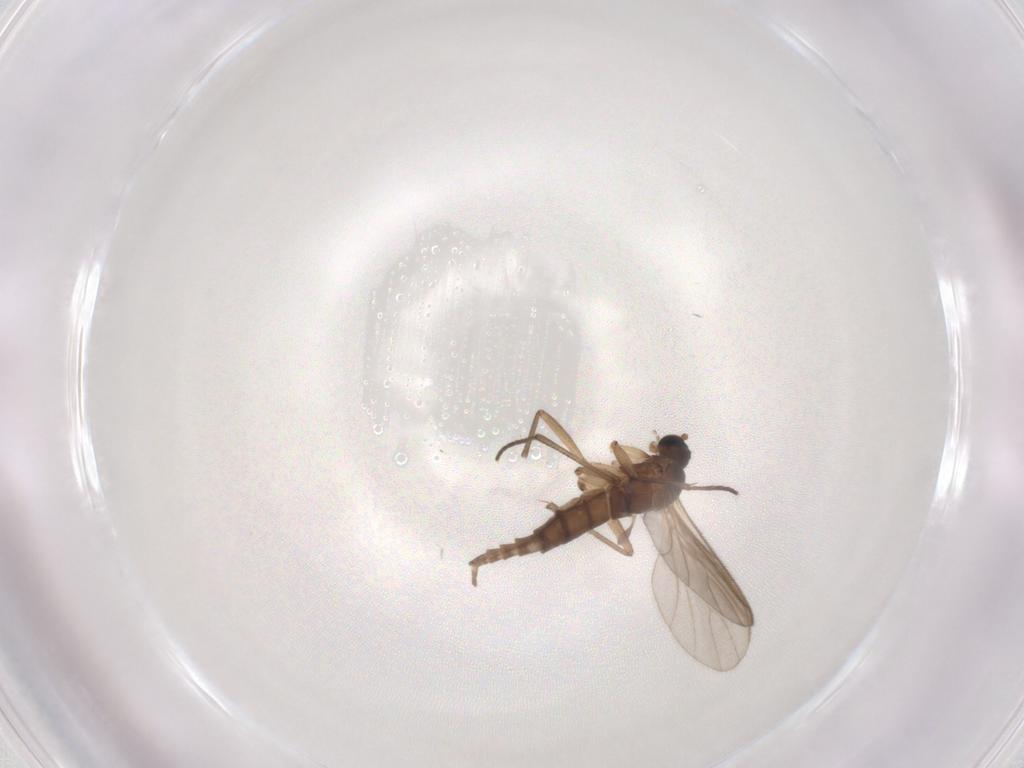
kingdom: Animalia
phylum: Arthropoda
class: Insecta
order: Diptera
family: Sciaridae
